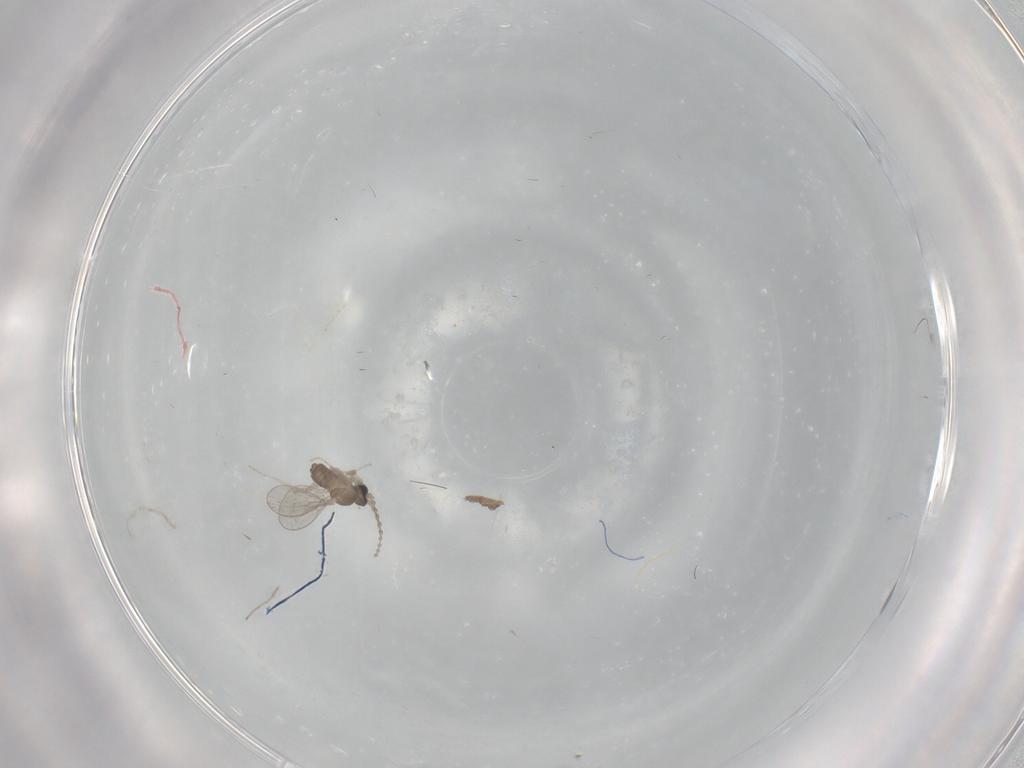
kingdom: Animalia
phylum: Arthropoda
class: Insecta
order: Diptera
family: Chironomidae
